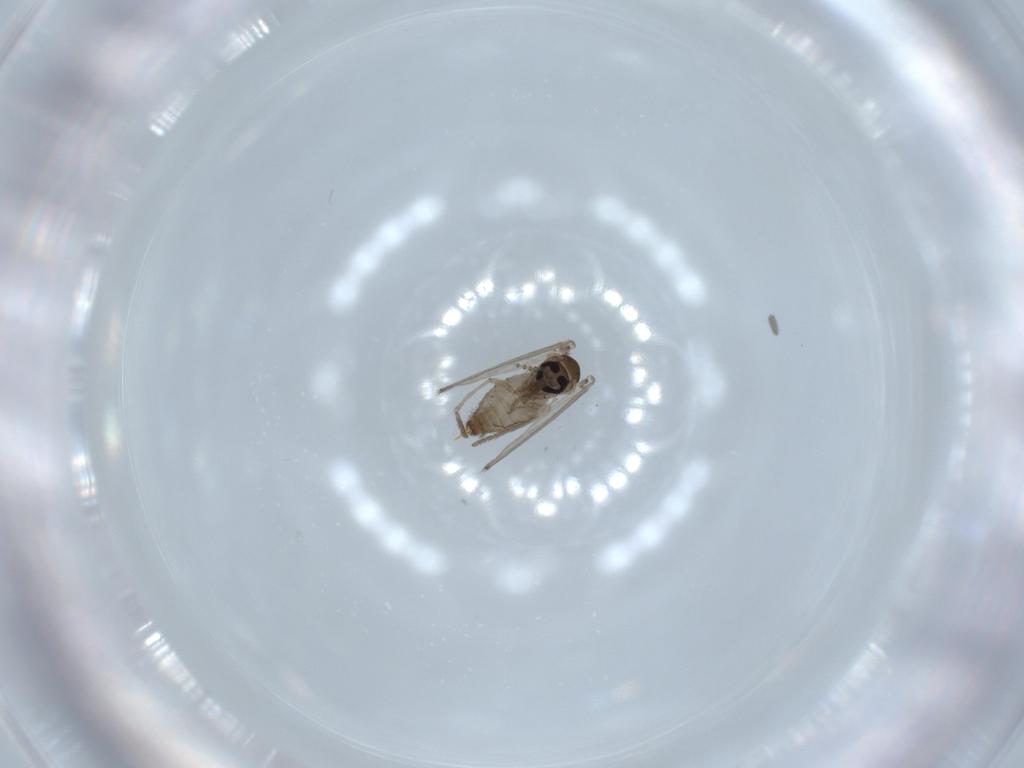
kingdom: Animalia
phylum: Arthropoda
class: Insecta
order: Diptera
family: Psychodidae
